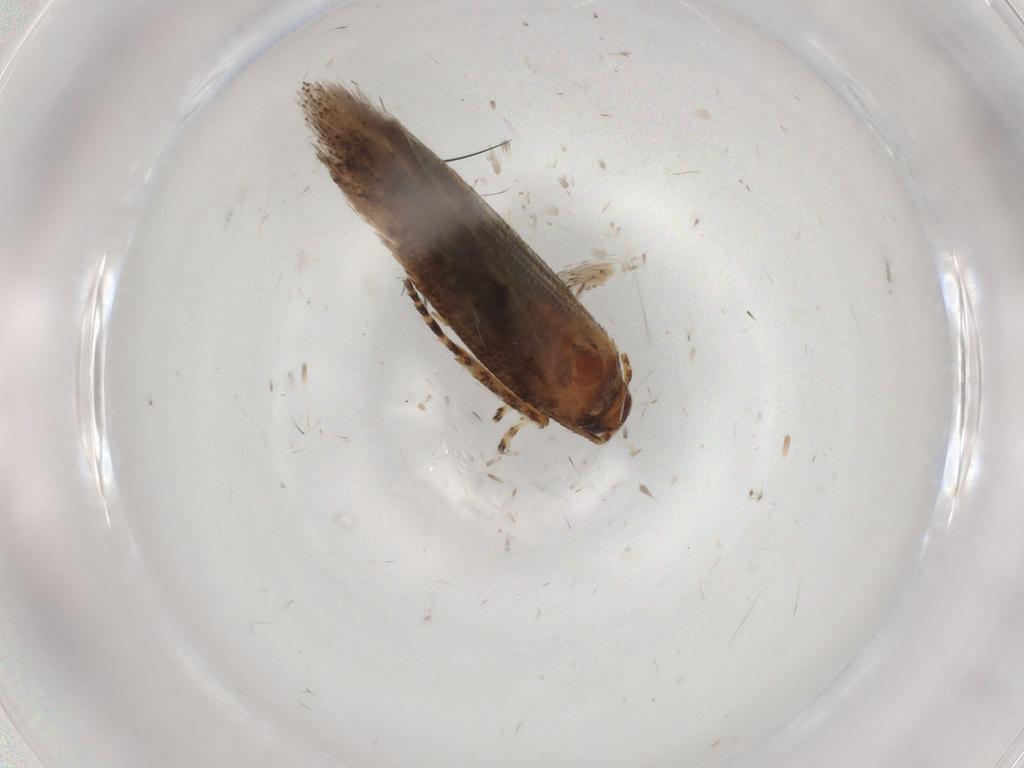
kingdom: Animalia
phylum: Arthropoda
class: Insecta
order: Lepidoptera
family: Gelechiidae
